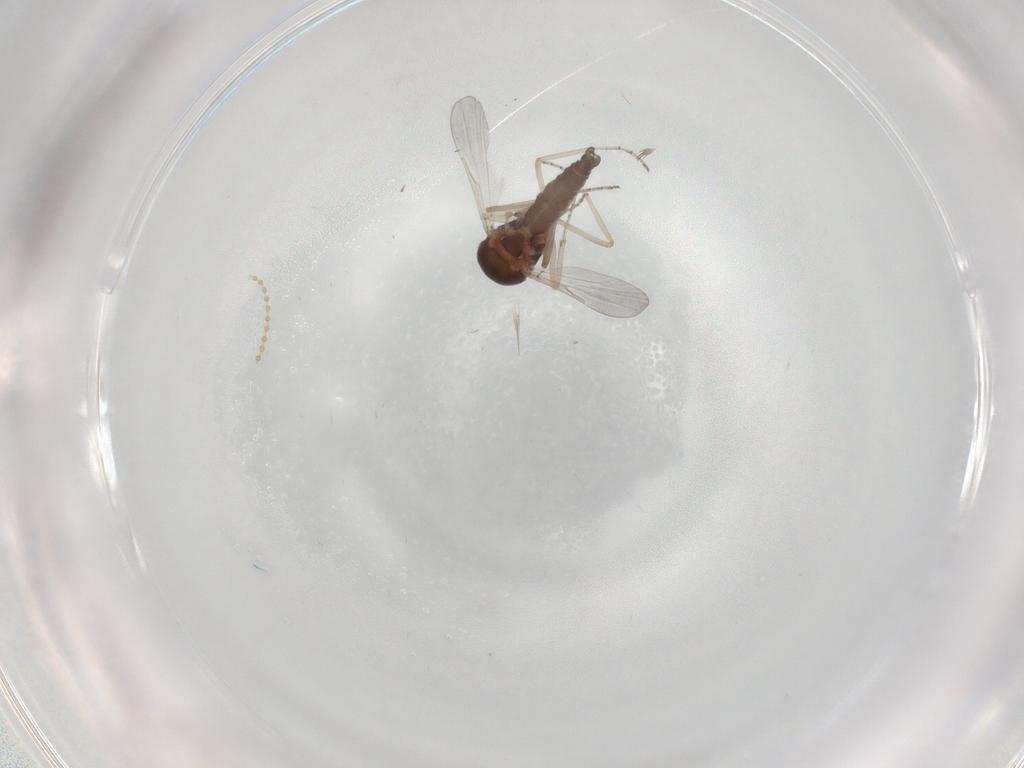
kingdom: Animalia
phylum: Arthropoda
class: Insecta
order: Diptera
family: Ceratopogonidae
